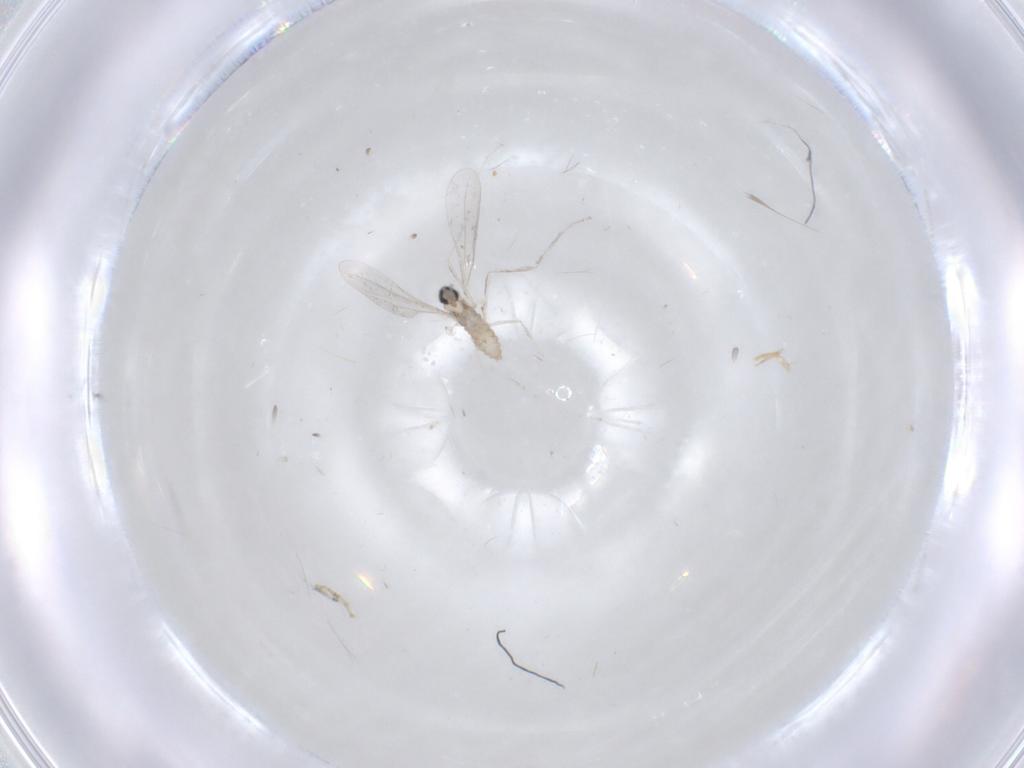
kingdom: Animalia
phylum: Arthropoda
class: Insecta
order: Diptera
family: Cecidomyiidae
